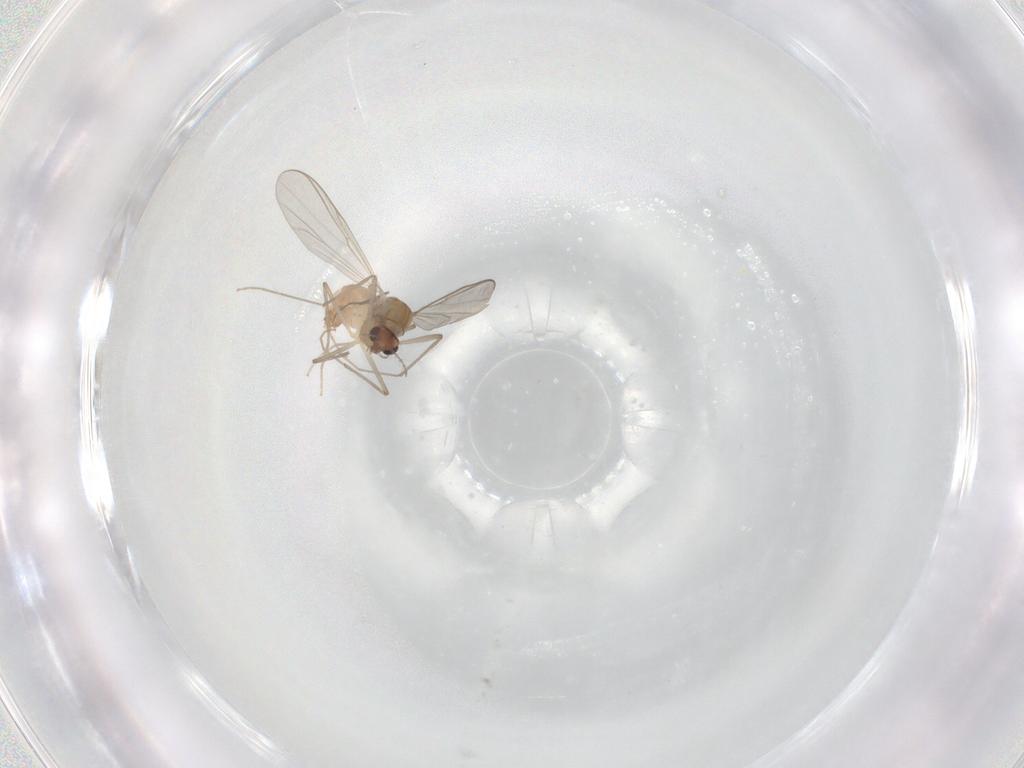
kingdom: Animalia
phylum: Arthropoda
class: Insecta
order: Diptera
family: Chironomidae
